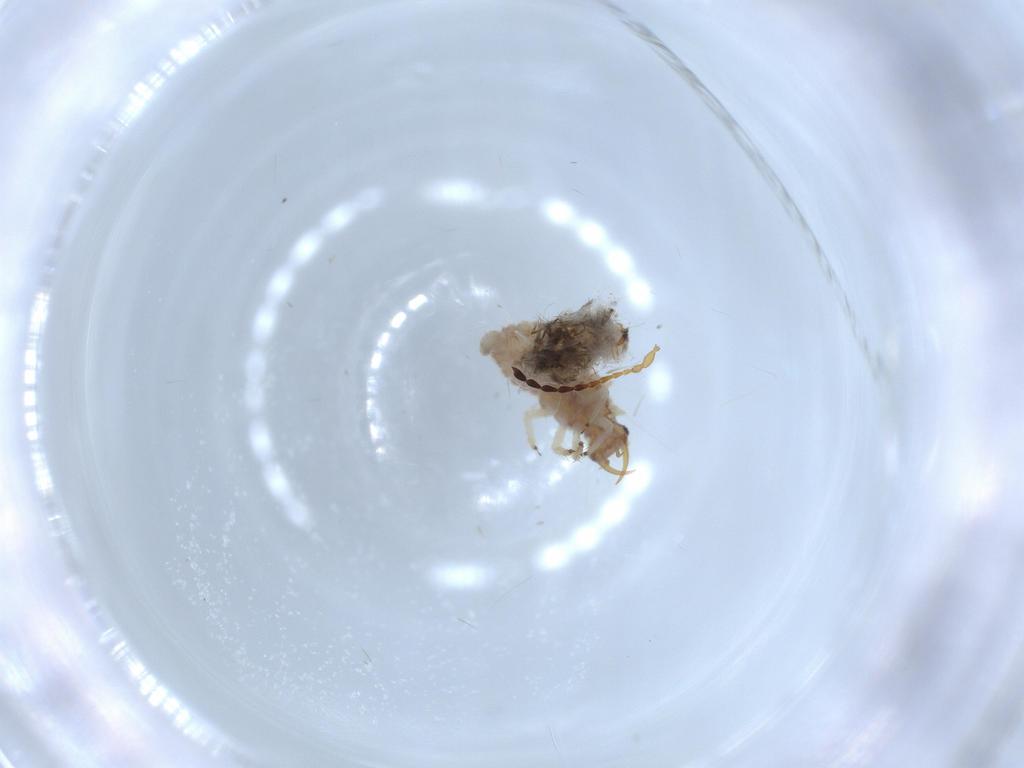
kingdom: Animalia
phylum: Arthropoda
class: Insecta
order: Neuroptera
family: Chrysopidae
